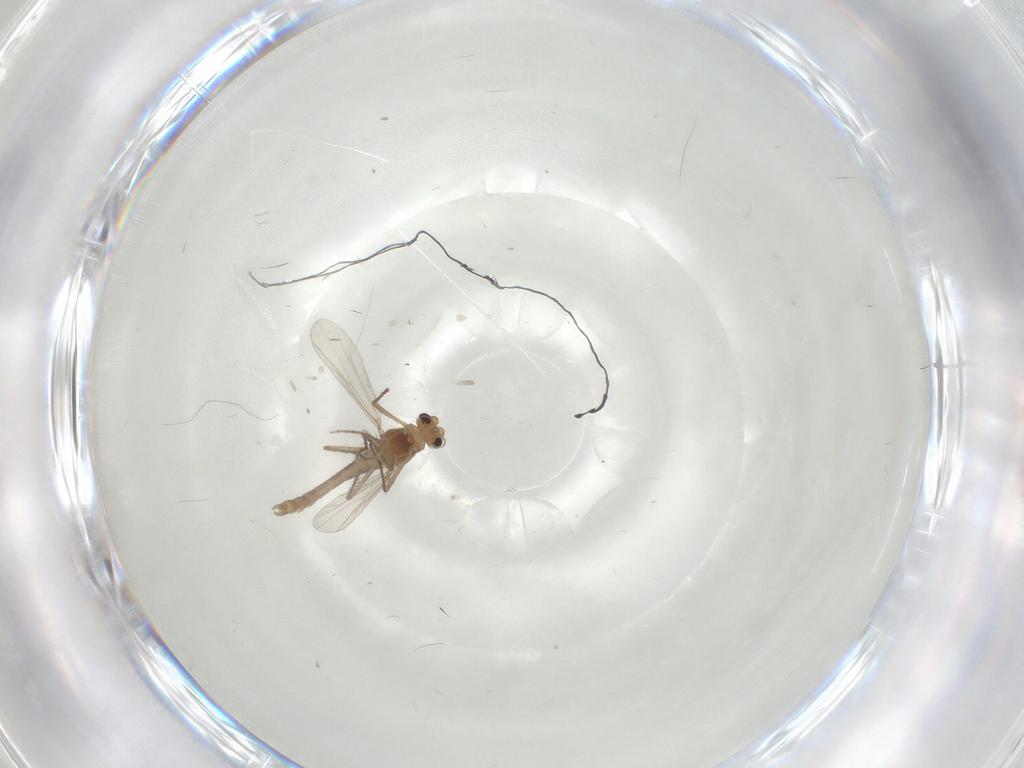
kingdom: Animalia
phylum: Arthropoda
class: Insecta
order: Diptera
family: Chironomidae
